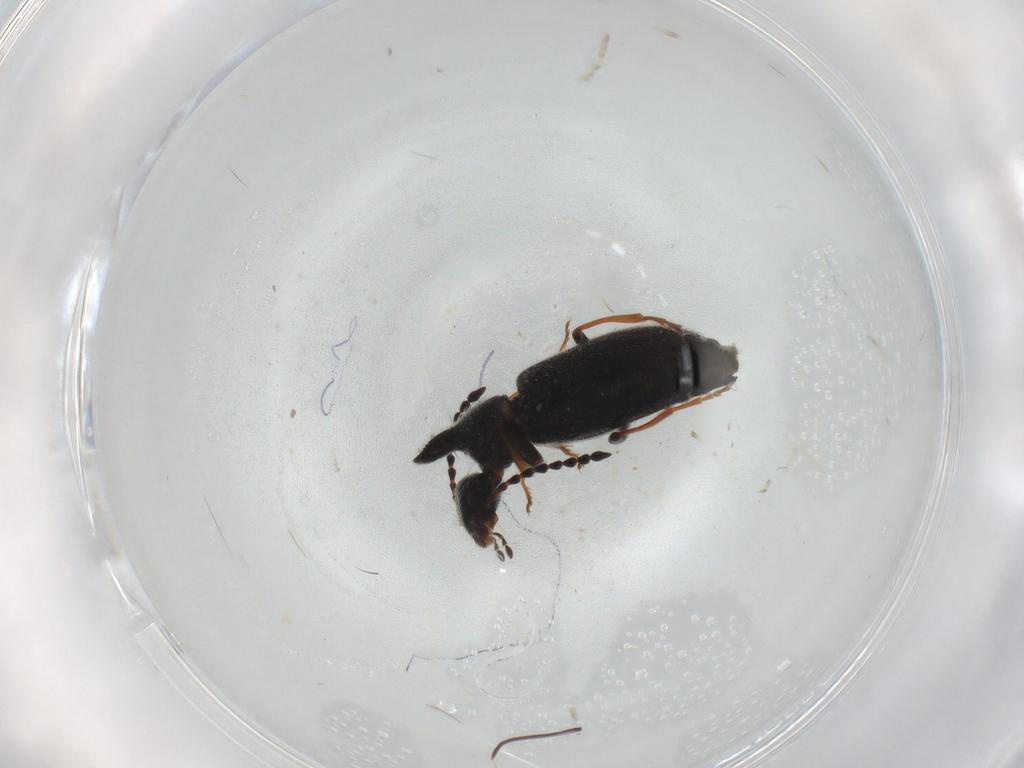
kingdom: Animalia
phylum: Arthropoda
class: Insecta
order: Coleoptera
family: Anthicidae
